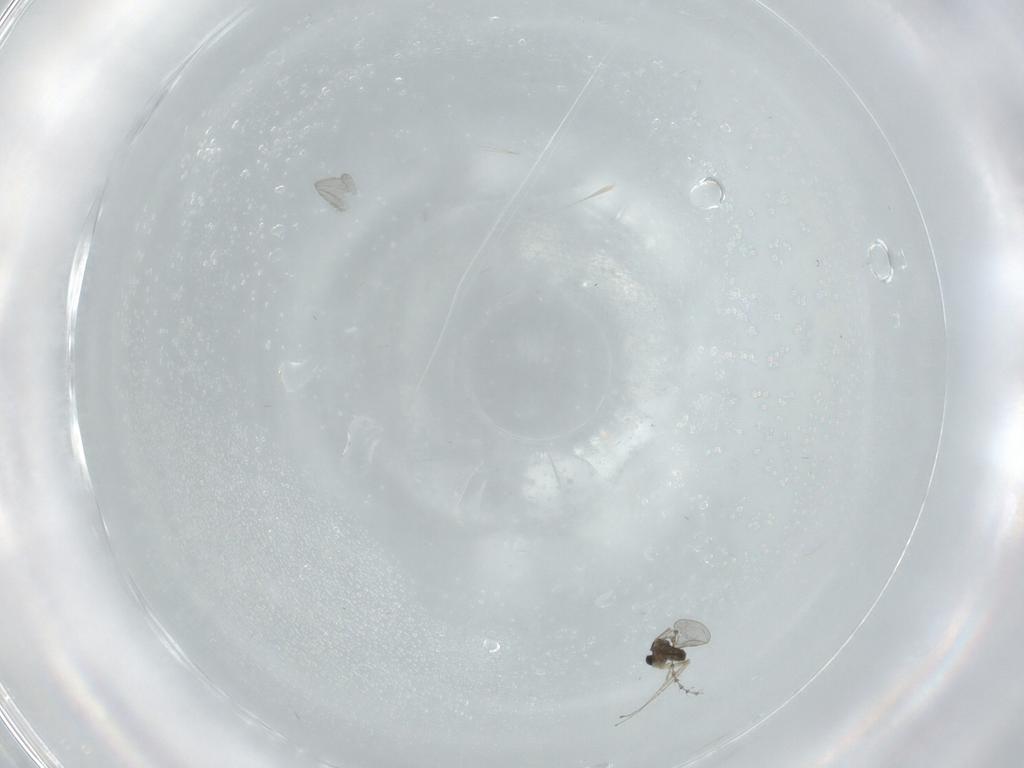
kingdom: Animalia
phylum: Arthropoda
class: Insecta
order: Diptera
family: Cecidomyiidae
